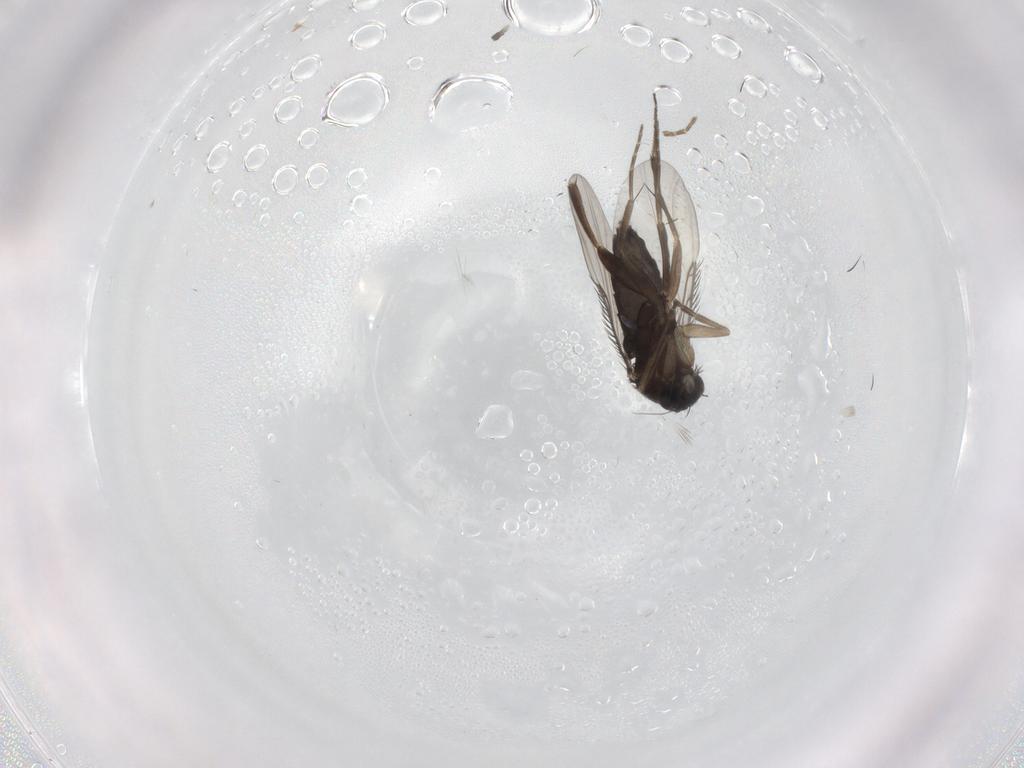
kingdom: Animalia
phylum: Arthropoda
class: Insecta
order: Diptera
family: Phoridae
